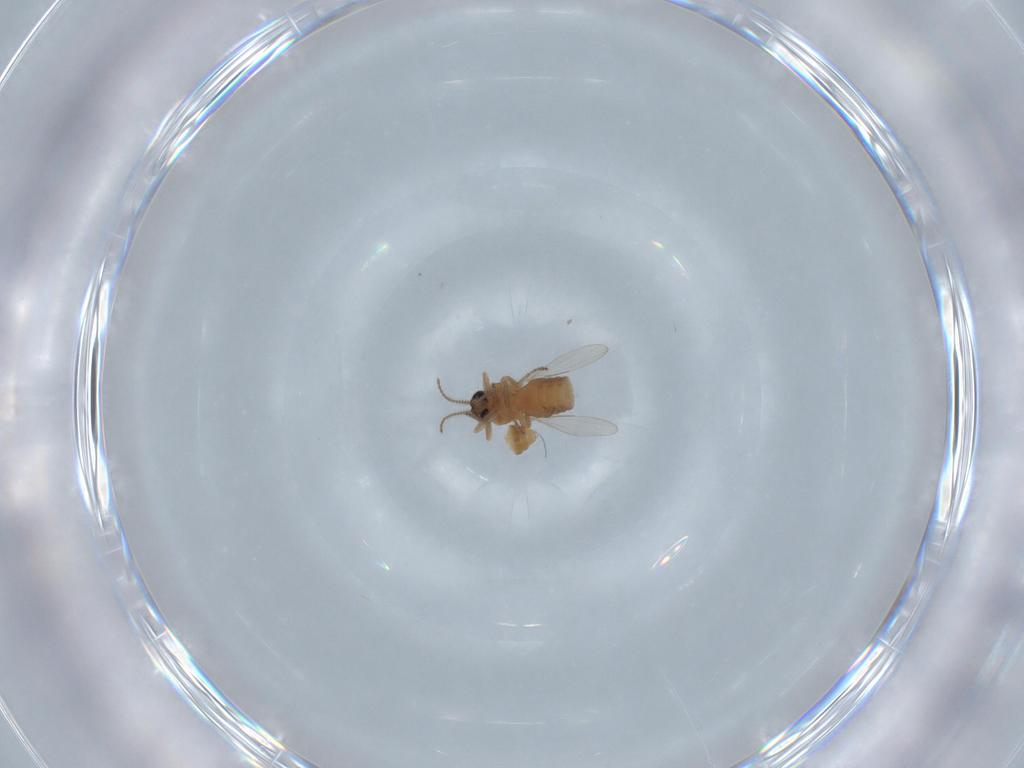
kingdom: Animalia
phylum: Arthropoda
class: Insecta
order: Diptera
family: Ceratopogonidae
